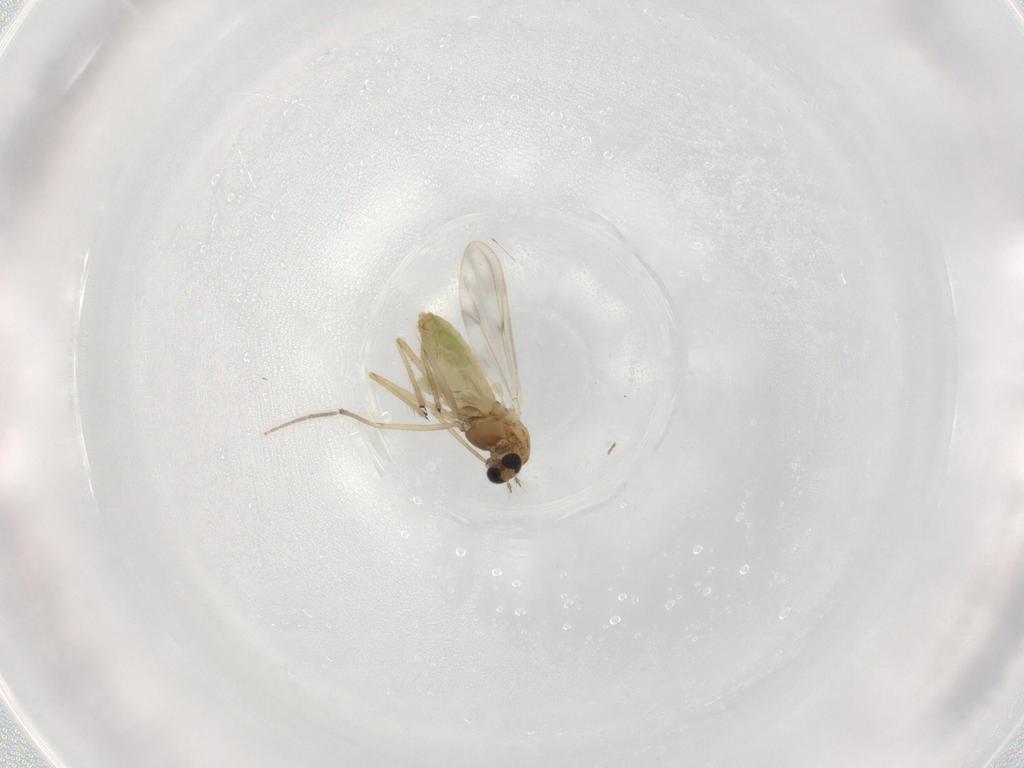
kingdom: Animalia
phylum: Arthropoda
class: Insecta
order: Diptera
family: Chironomidae
